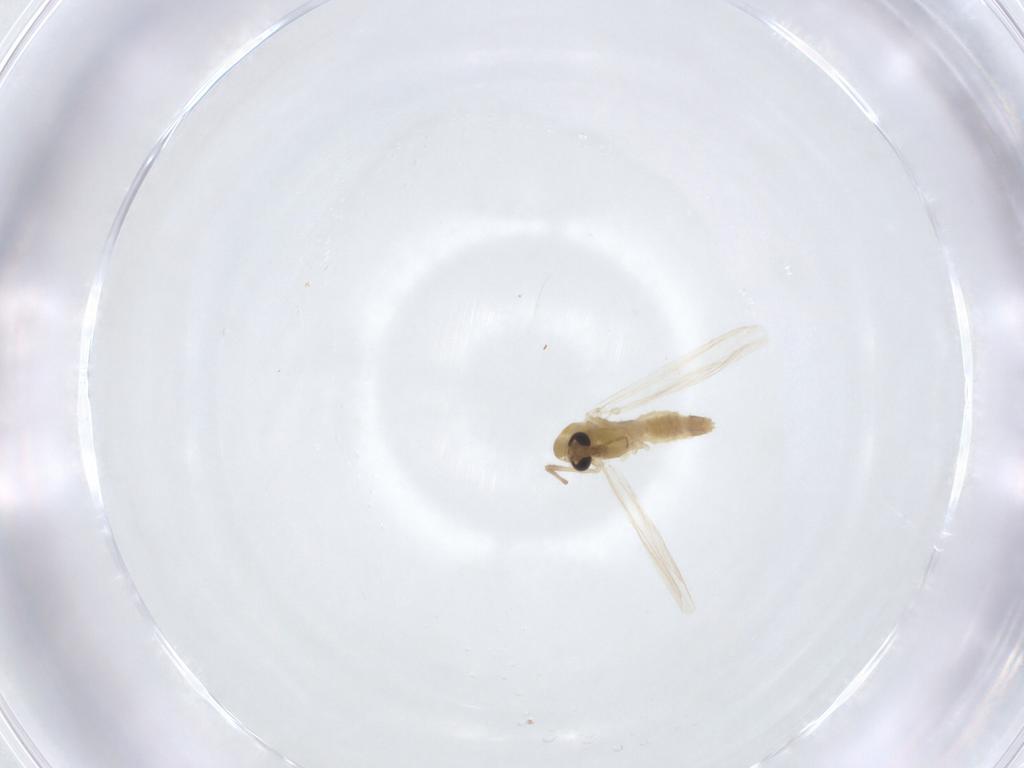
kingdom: Animalia
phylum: Arthropoda
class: Insecta
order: Diptera
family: Chironomidae
